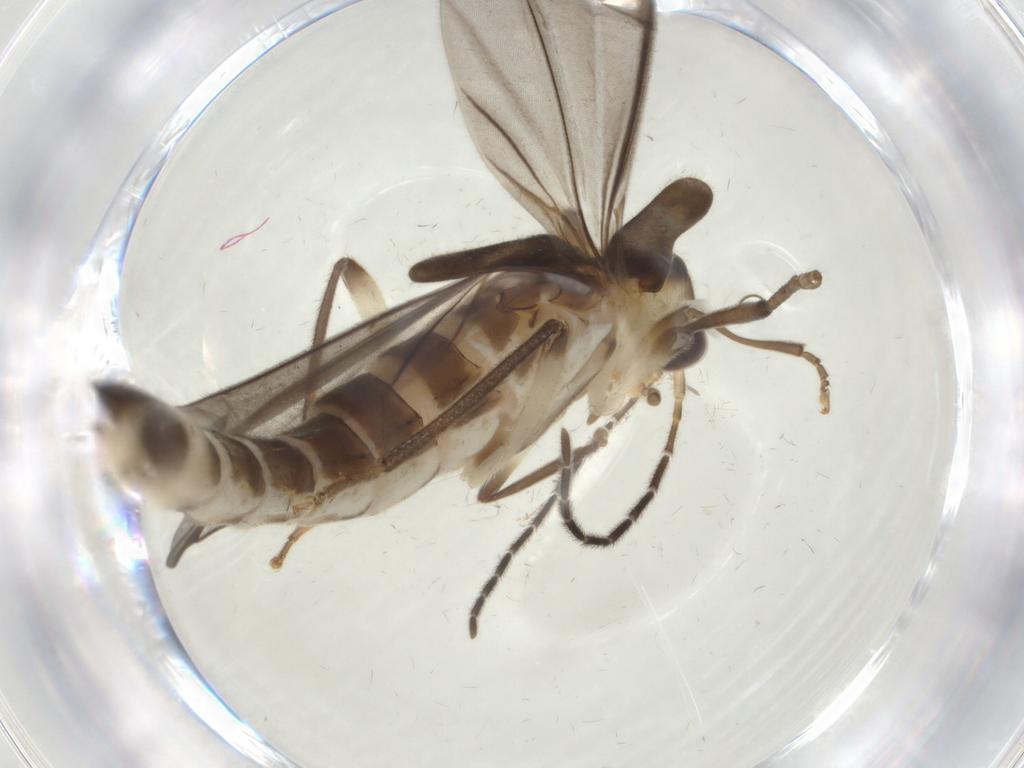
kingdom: Animalia
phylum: Arthropoda
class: Insecta
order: Coleoptera
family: Cantharidae
